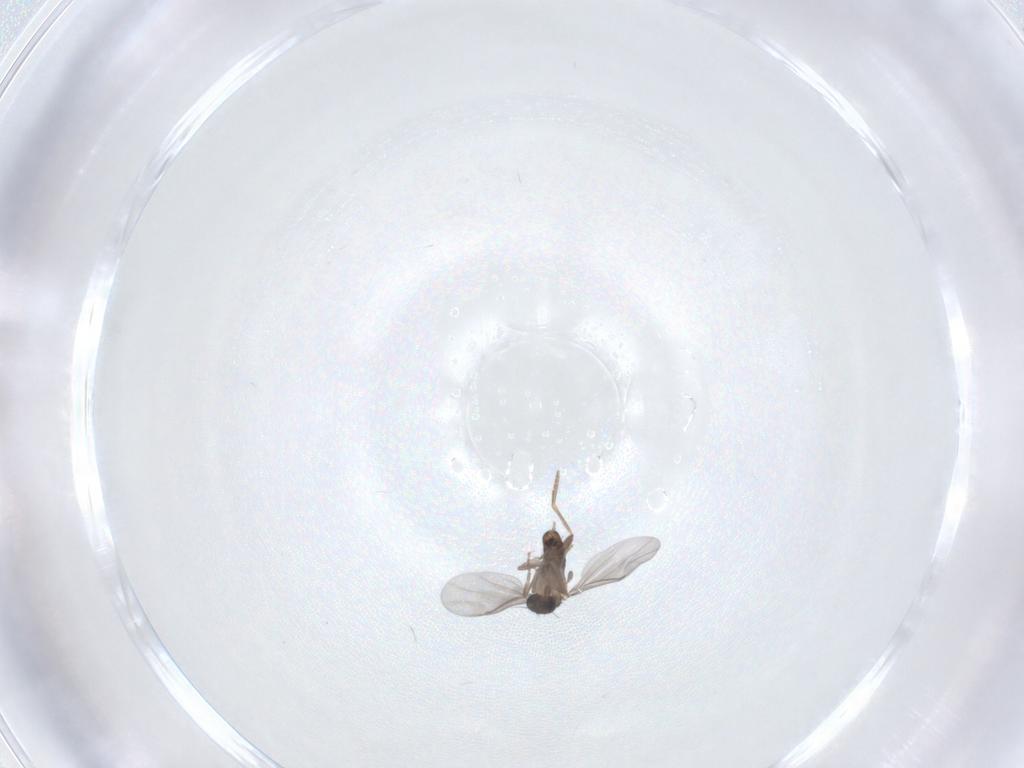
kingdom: Animalia
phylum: Arthropoda
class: Insecta
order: Diptera
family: Phoridae
